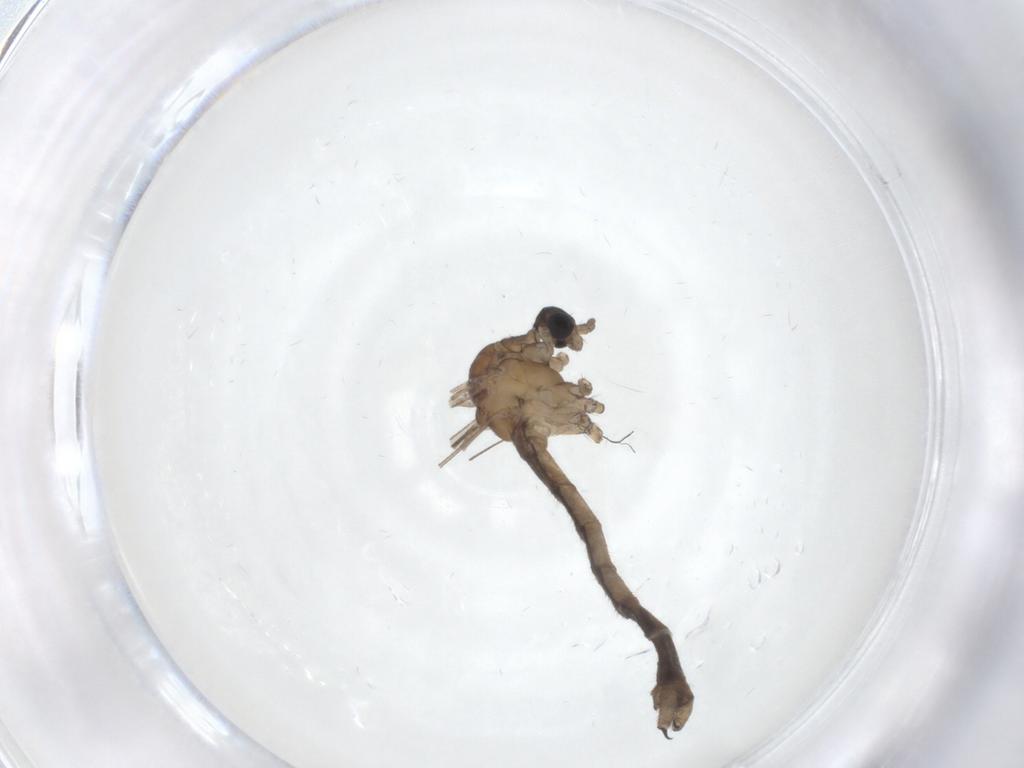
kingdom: Animalia
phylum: Arthropoda
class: Insecta
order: Diptera
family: Limoniidae
